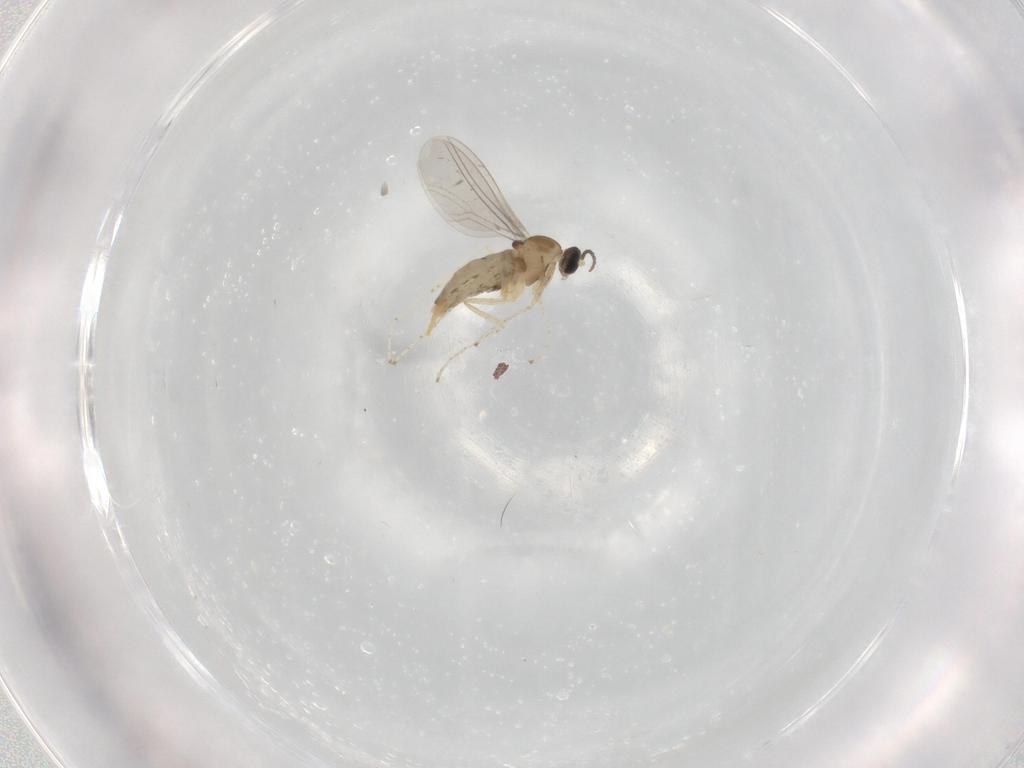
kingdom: Animalia
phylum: Arthropoda
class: Insecta
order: Diptera
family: Cecidomyiidae
